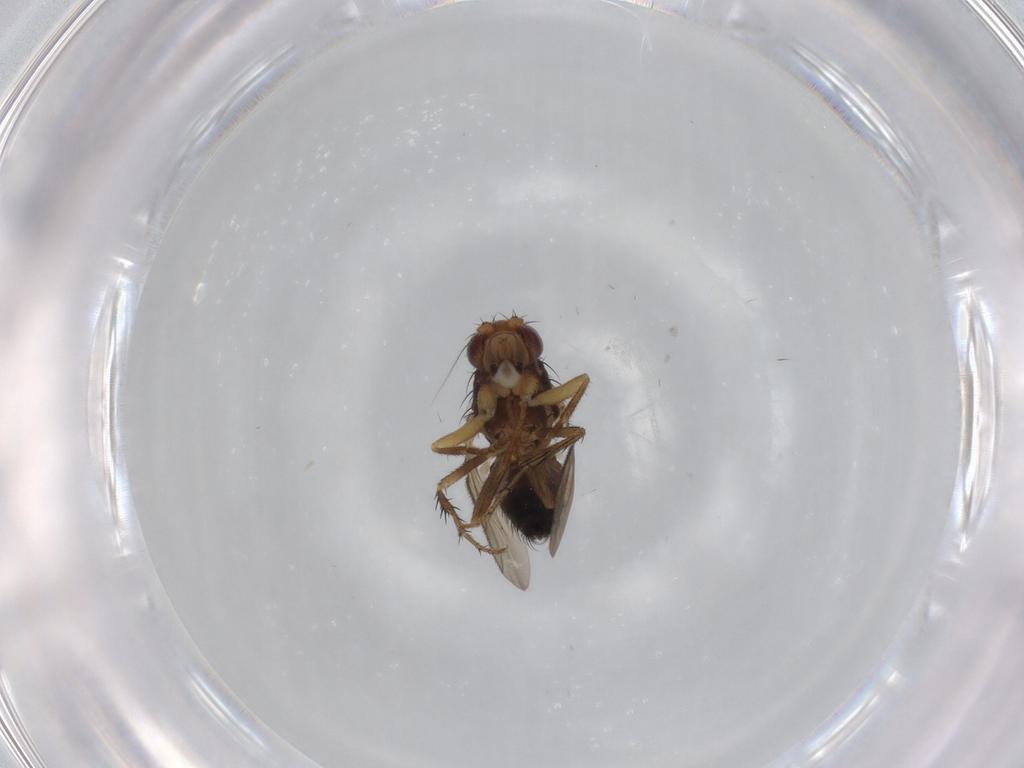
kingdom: Animalia
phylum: Arthropoda
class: Insecta
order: Diptera
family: Sphaeroceridae
